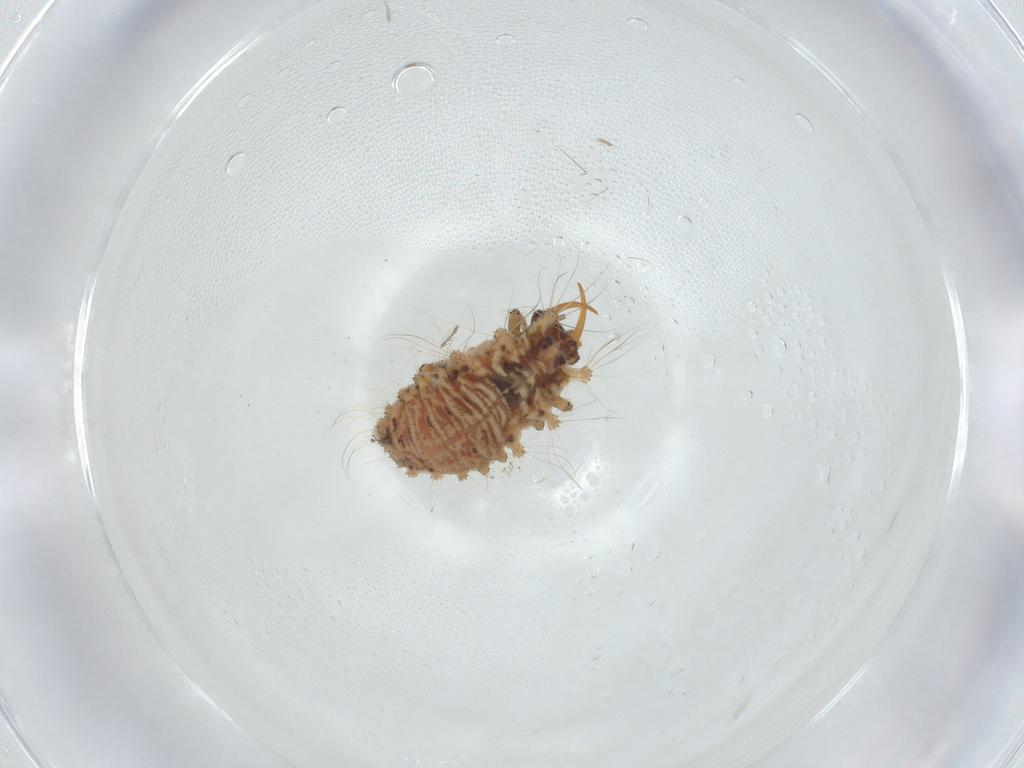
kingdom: Animalia
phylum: Arthropoda
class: Insecta
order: Neuroptera
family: Chrysopidae
